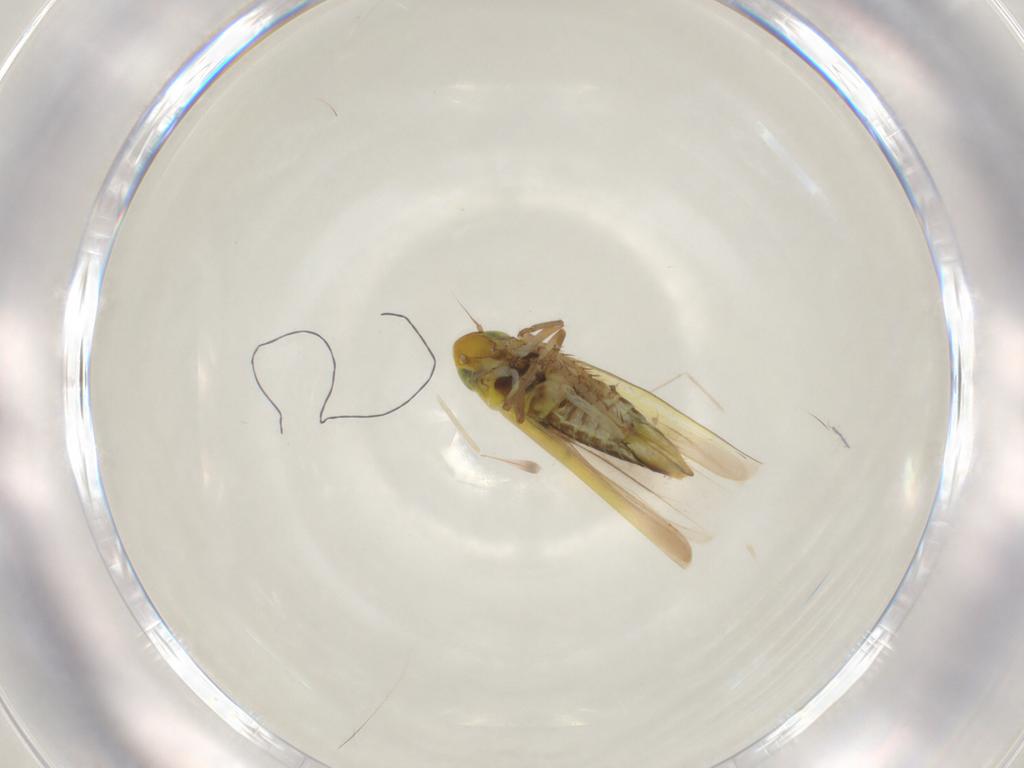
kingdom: Animalia
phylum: Arthropoda
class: Insecta
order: Hemiptera
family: Cicadellidae
